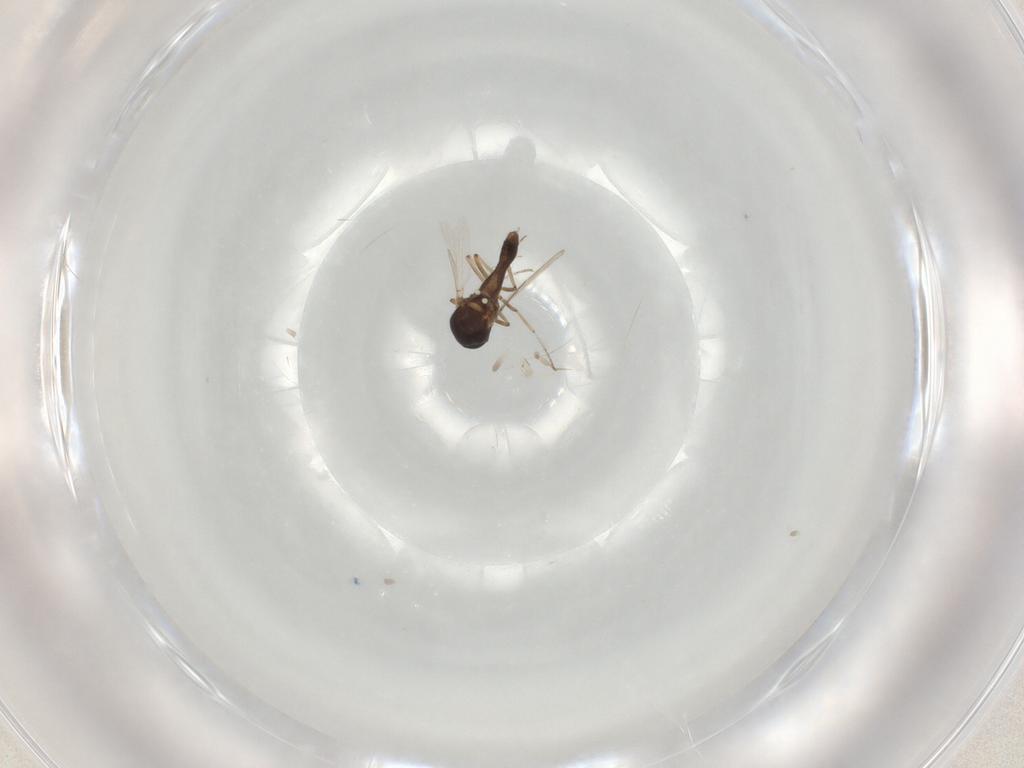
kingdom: Animalia
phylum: Arthropoda
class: Insecta
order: Diptera
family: Ceratopogonidae
